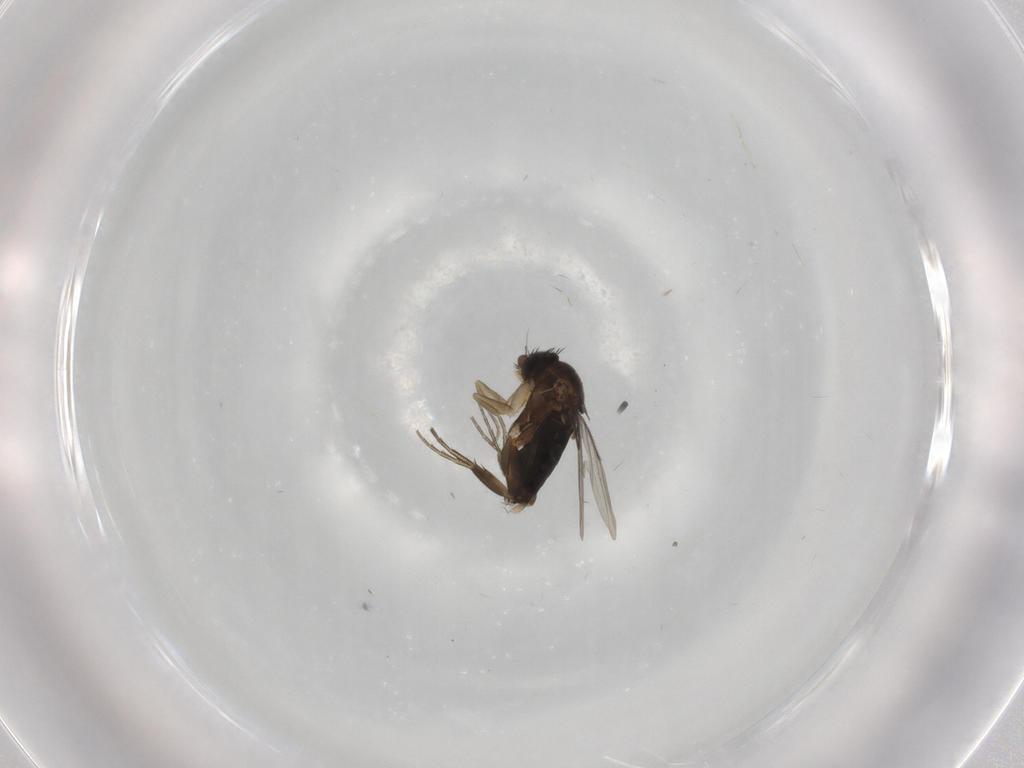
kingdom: Animalia
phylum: Arthropoda
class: Insecta
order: Diptera
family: Phoridae
